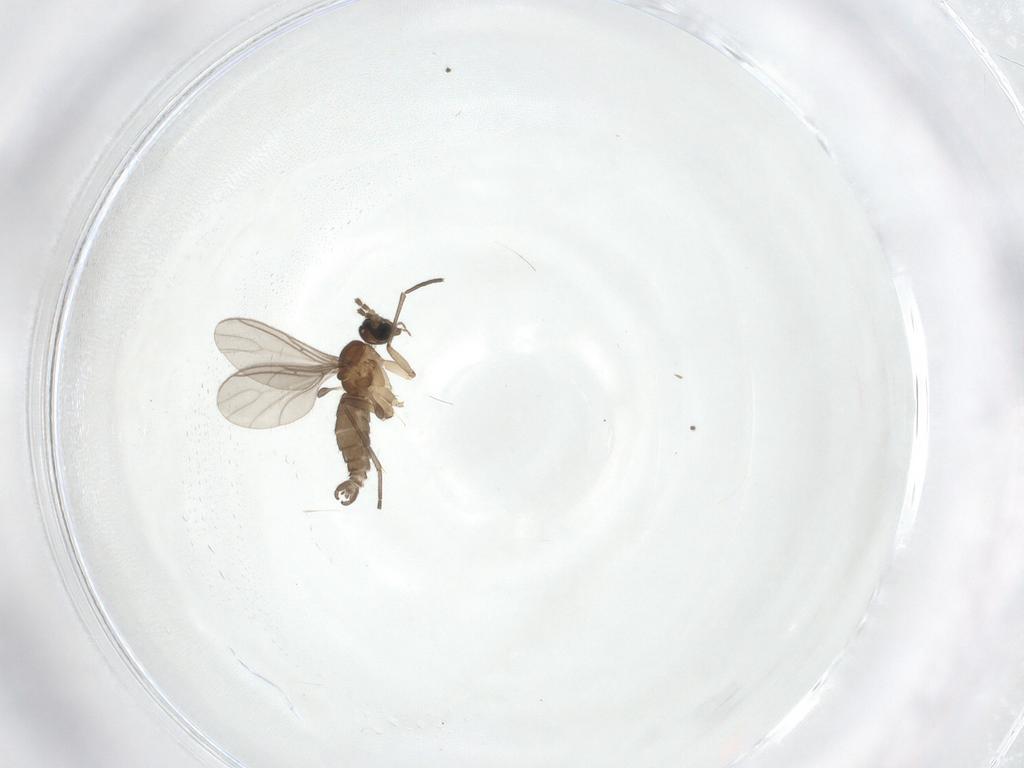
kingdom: Animalia
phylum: Arthropoda
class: Insecta
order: Diptera
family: Sciaridae
